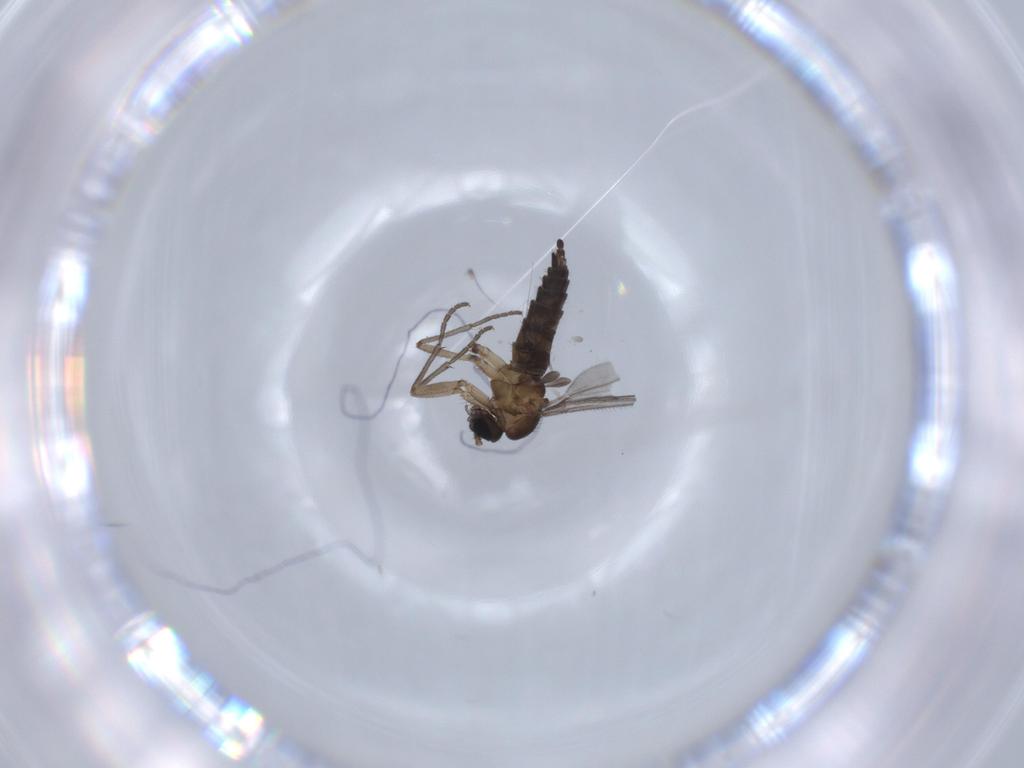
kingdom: Animalia
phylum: Arthropoda
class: Insecta
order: Diptera
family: Sciaridae
